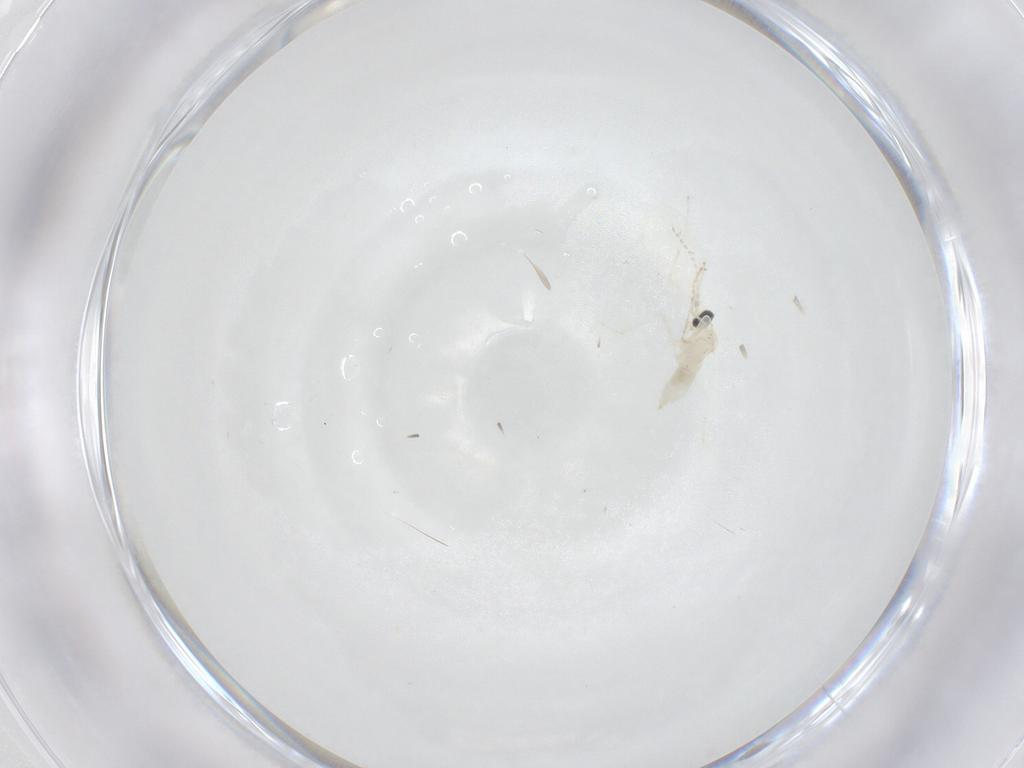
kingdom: Animalia
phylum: Arthropoda
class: Insecta
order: Diptera
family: Cecidomyiidae
